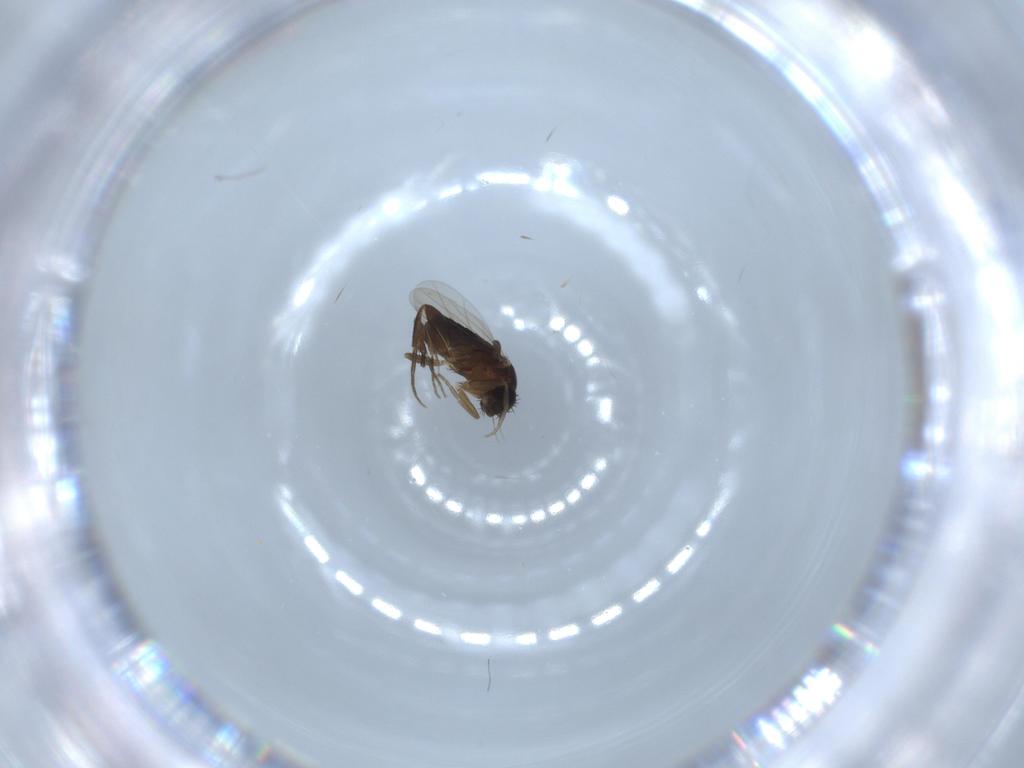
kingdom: Animalia
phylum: Arthropoda
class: Insecta
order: Diptera
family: Phoridae
